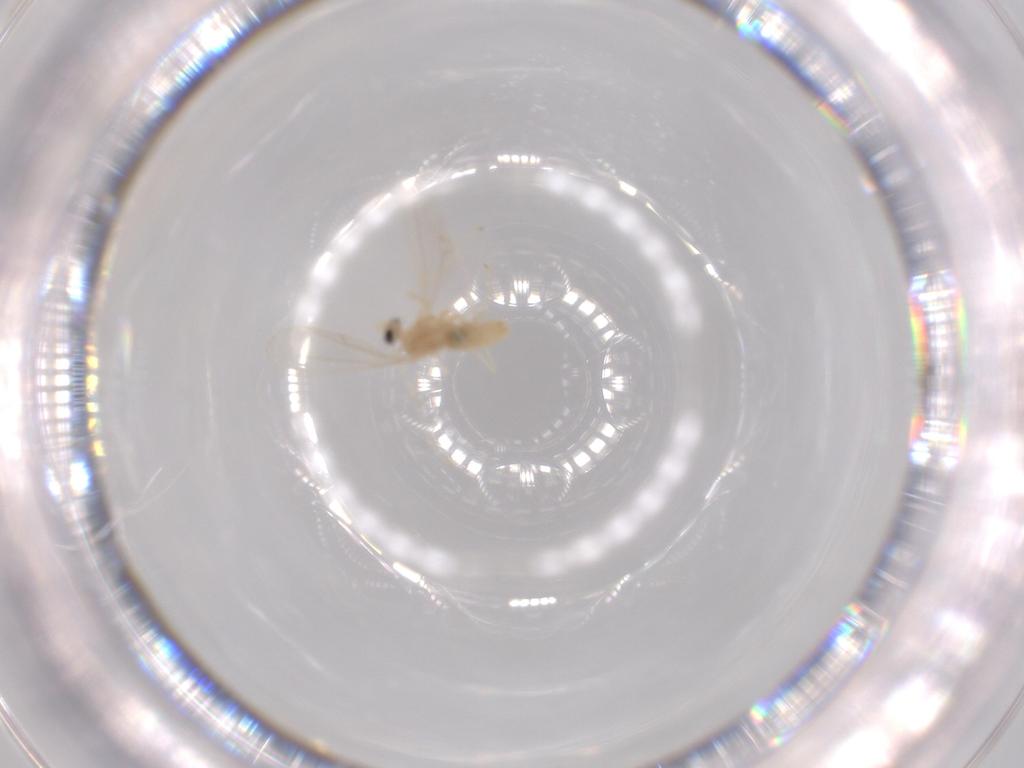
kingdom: Animalia
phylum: Arthropoda
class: Insecta
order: Diptera
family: Cecidomyiidae
